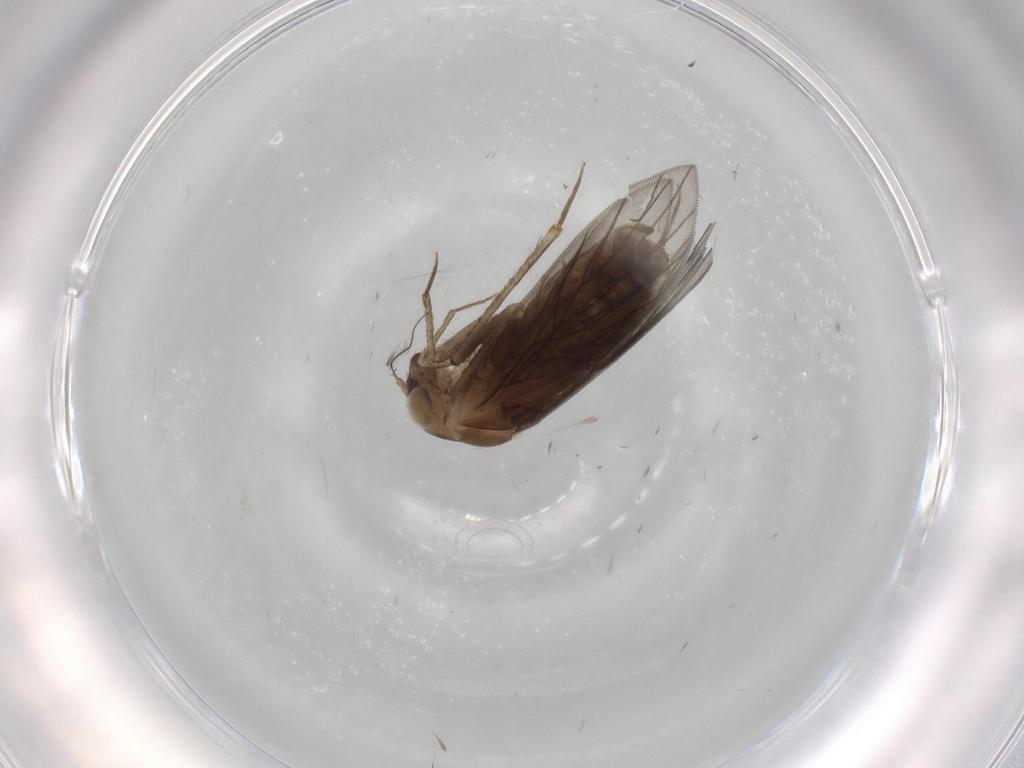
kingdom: Animalia
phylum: Arthropoda
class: Insecta
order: Psocodea
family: Lepidopsocidae
